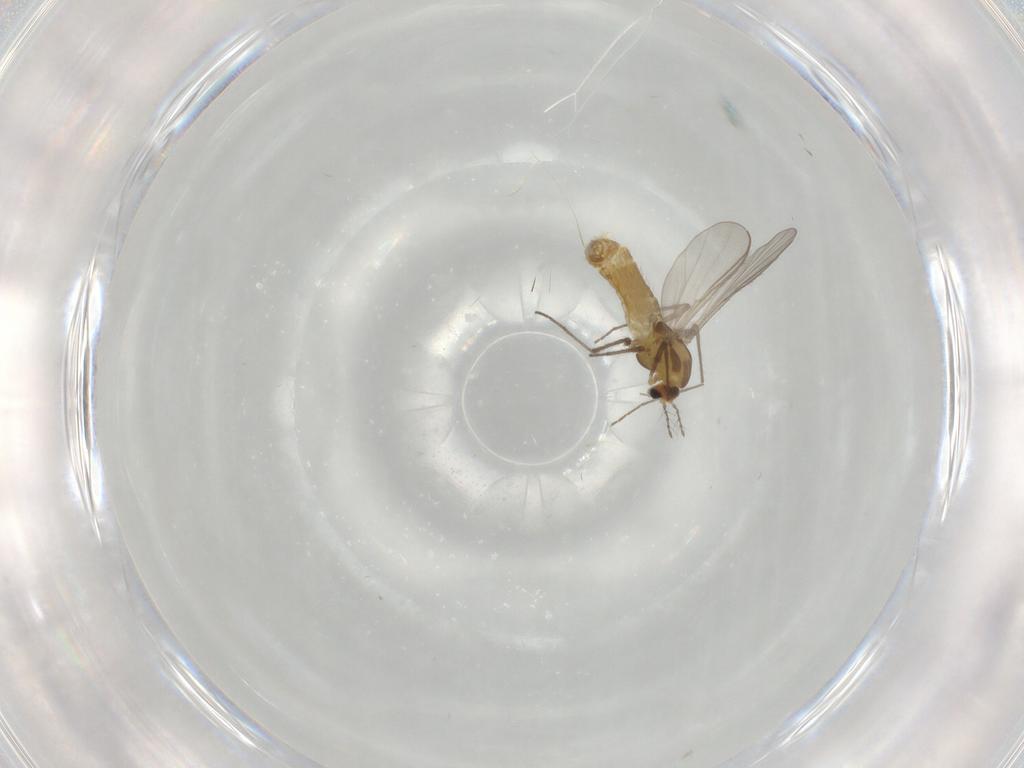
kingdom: Animalia
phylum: Arthropoda
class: Insecta
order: Diptera
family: Chironomidae
